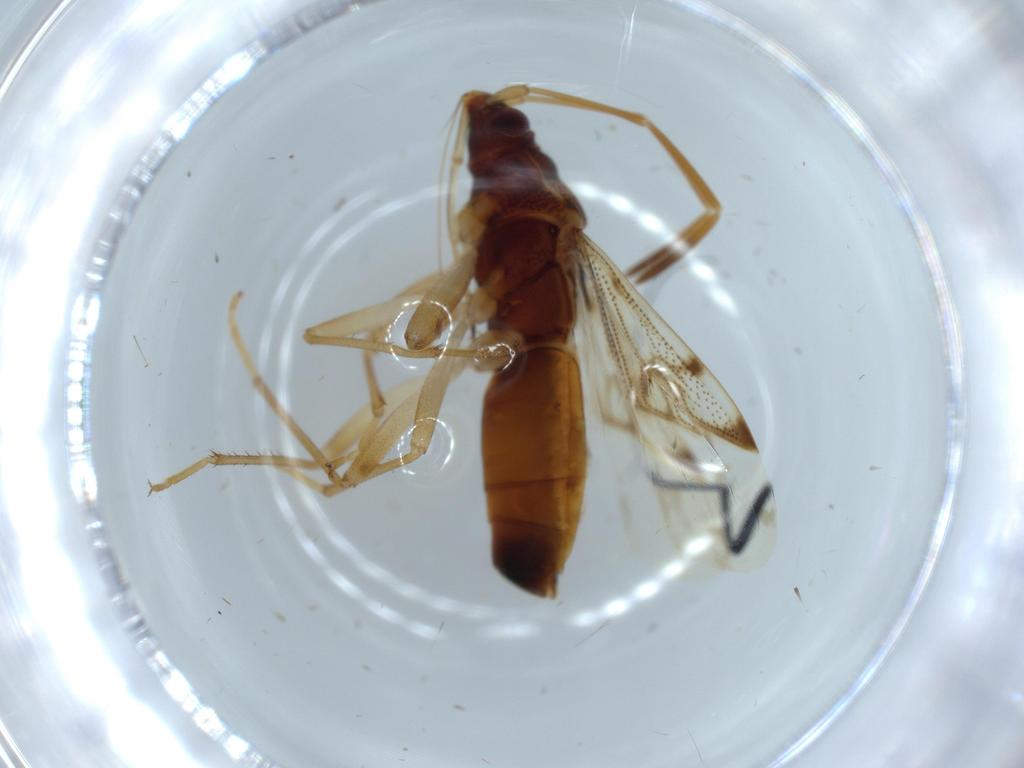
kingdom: Animalia
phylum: Arthropoda
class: Insecta
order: Hemiptera
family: Rhyparochromidae
